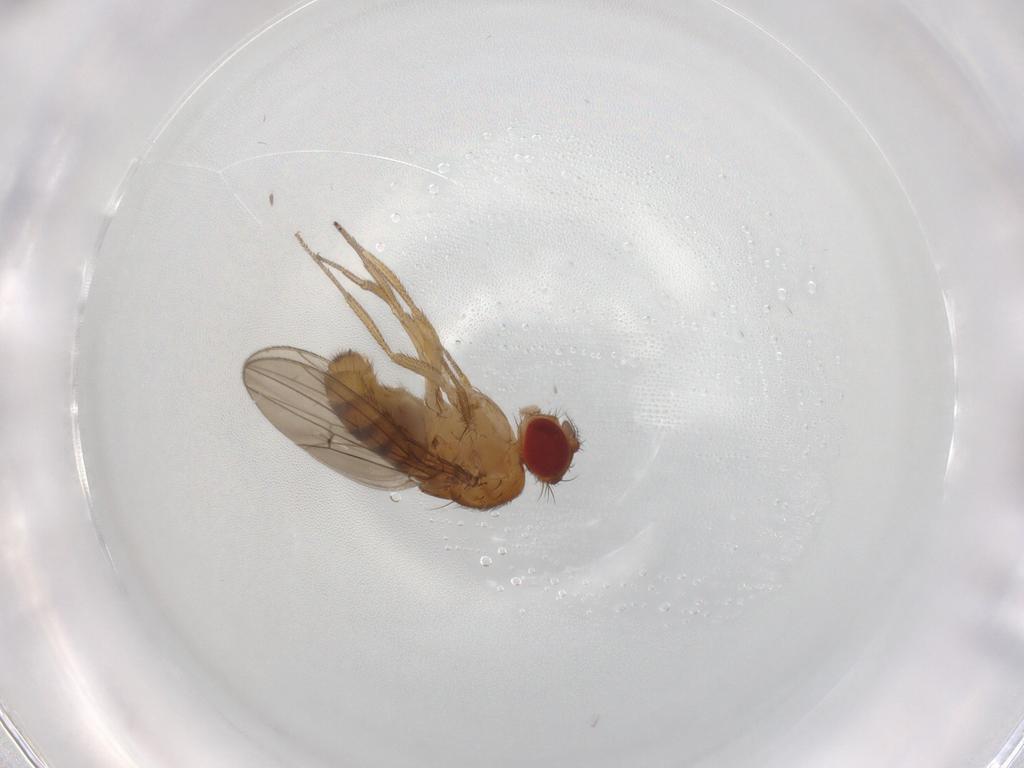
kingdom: Animalia
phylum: Arthropoda
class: Insecta
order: Diptera
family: Drosophilidae
